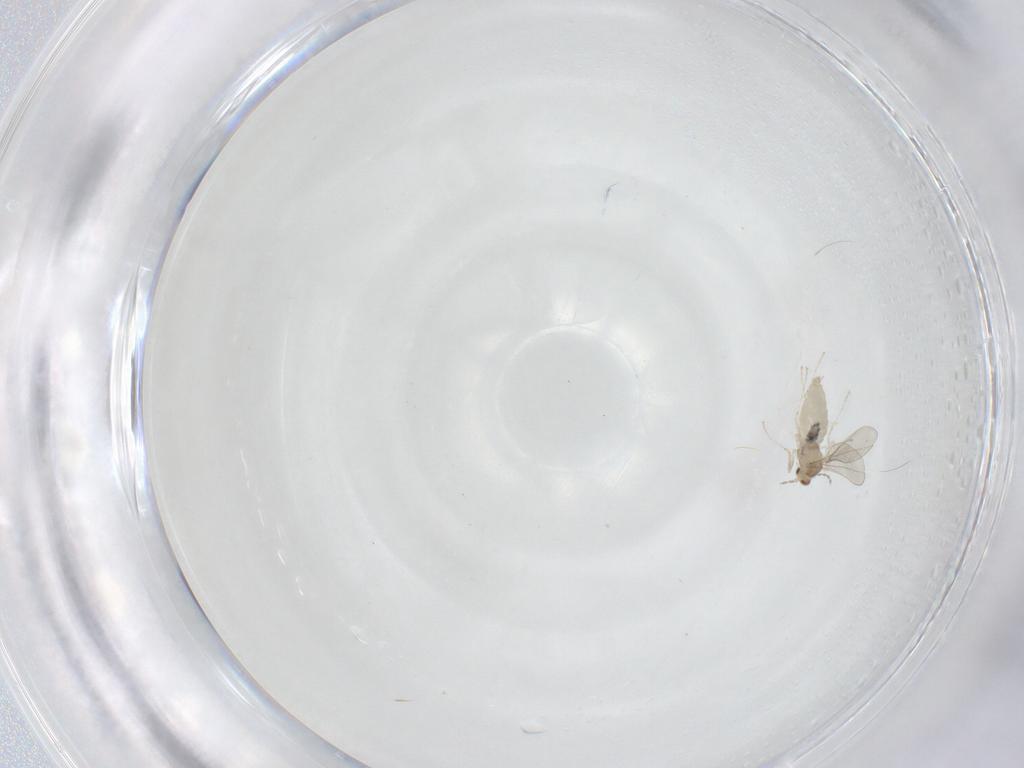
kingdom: Animalia
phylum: Arthropoda
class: Insecta
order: Diptera
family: Cecidomyiidae
